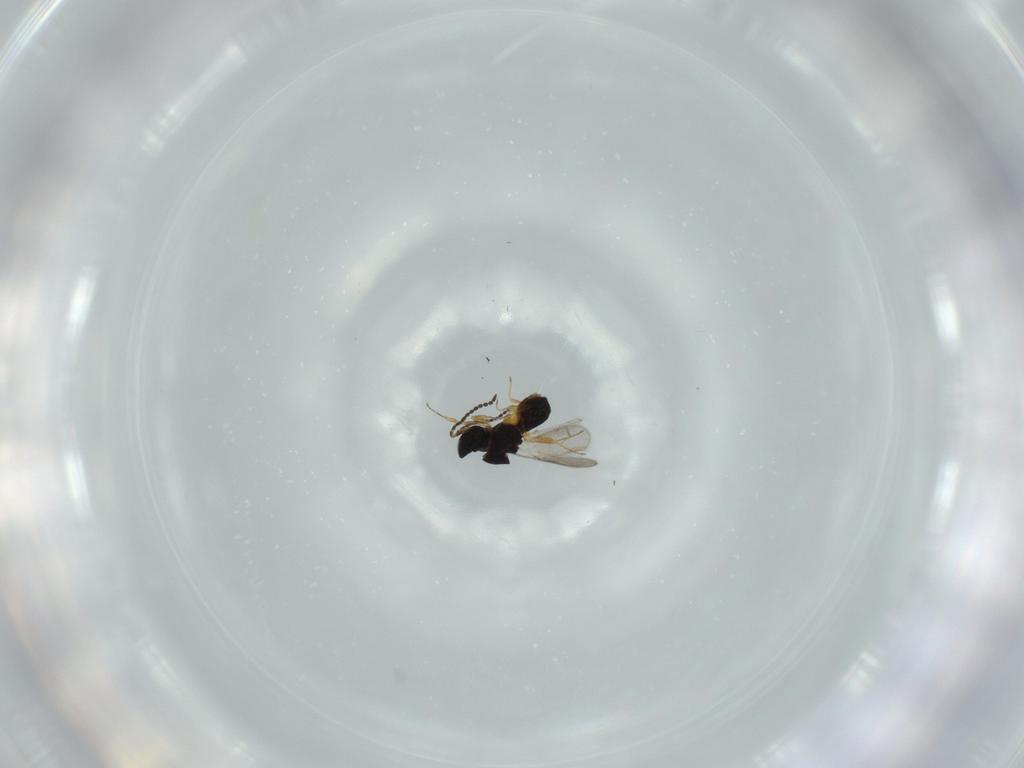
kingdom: Animalia
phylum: Arthropoda
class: Insecta
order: Hymenoptera
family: Scelionidae
